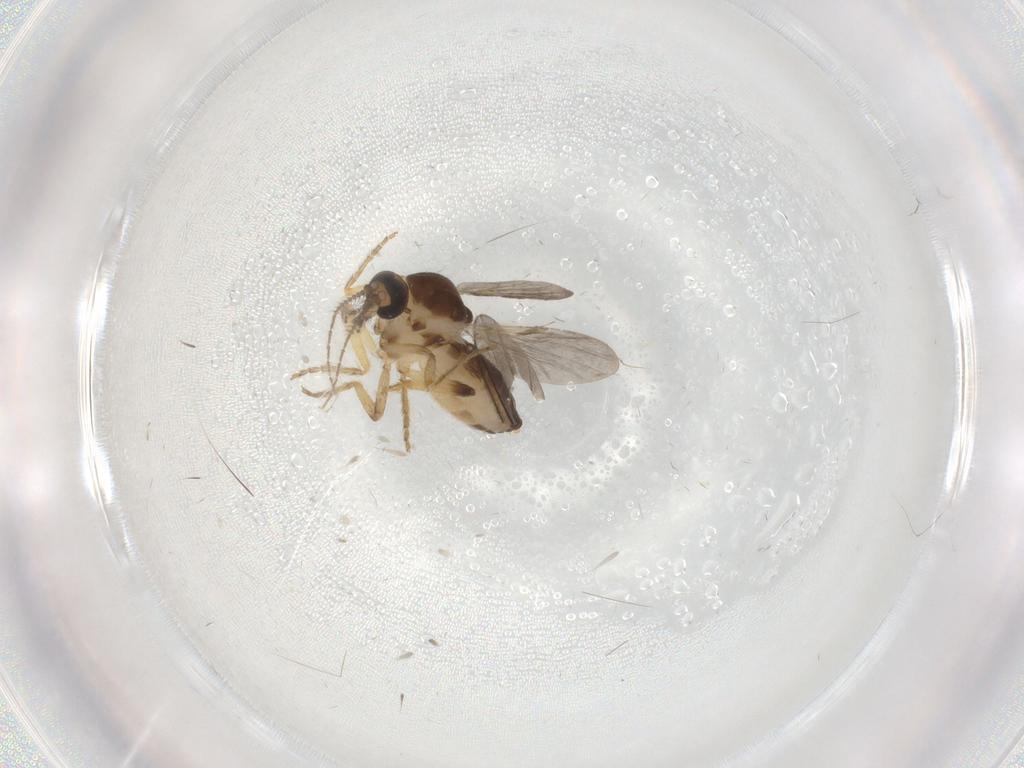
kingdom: Animalia
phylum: Arthropoda
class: Insecta
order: Diptera
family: Ceratopogonidae
